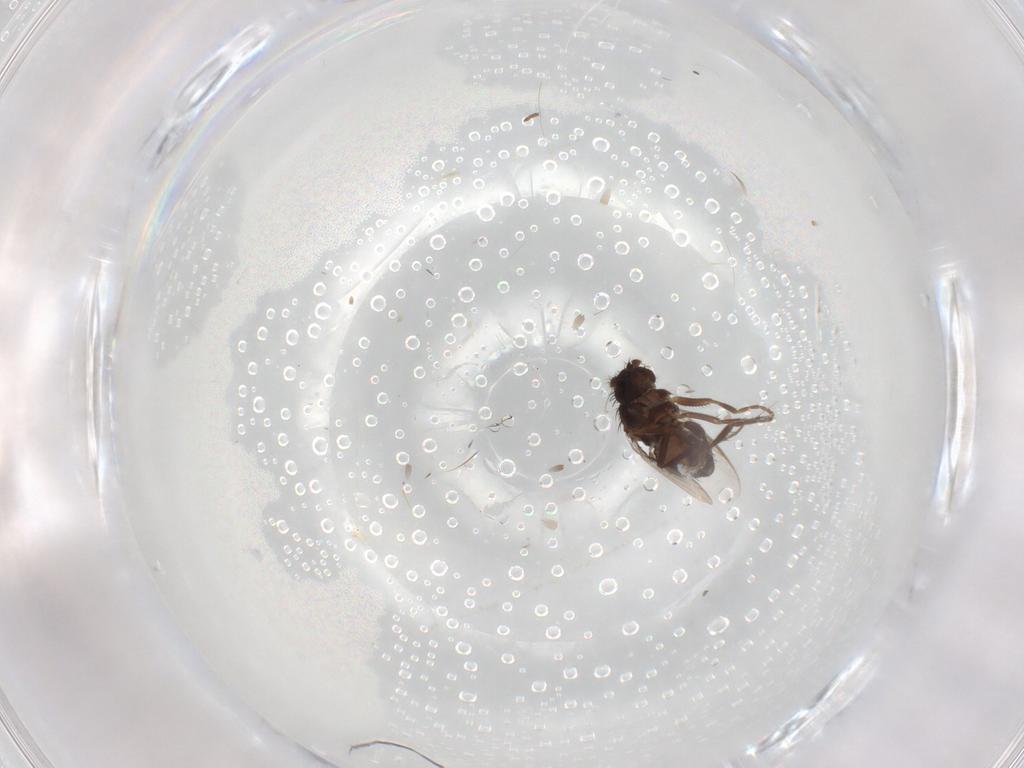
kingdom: Animalia
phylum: Arthropoda
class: Insecta
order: Diptera
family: Sphaeroceridae
